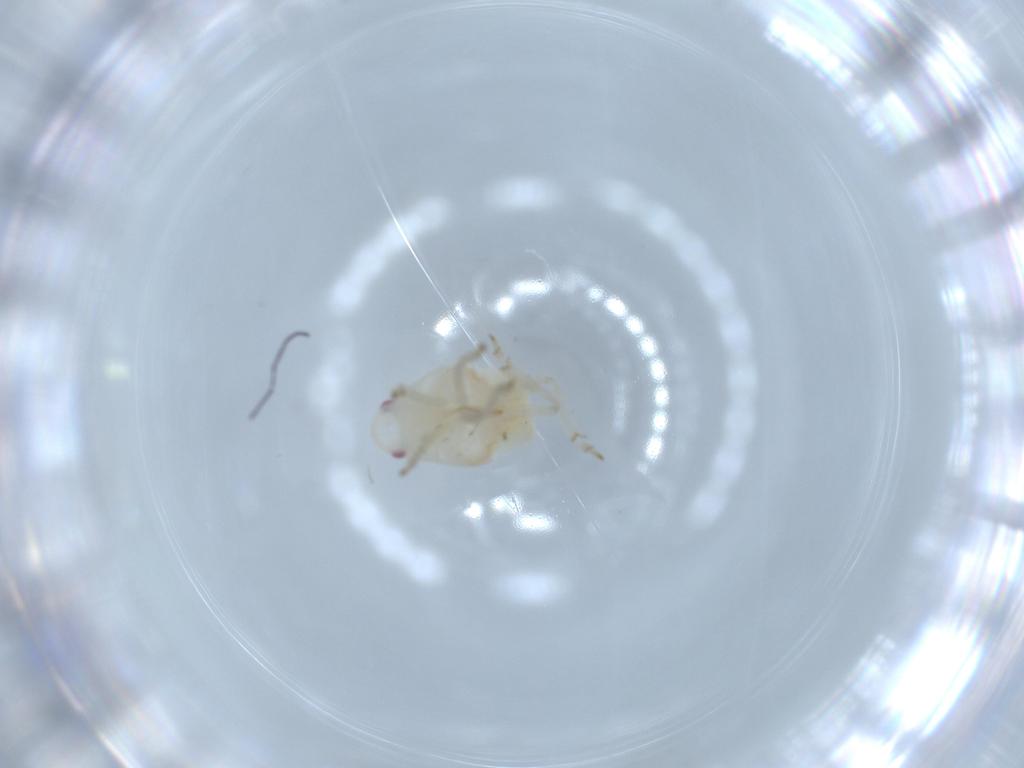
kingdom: Animalia
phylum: Arthropoda
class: Insecta
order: Hemiptera
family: Flatidae
